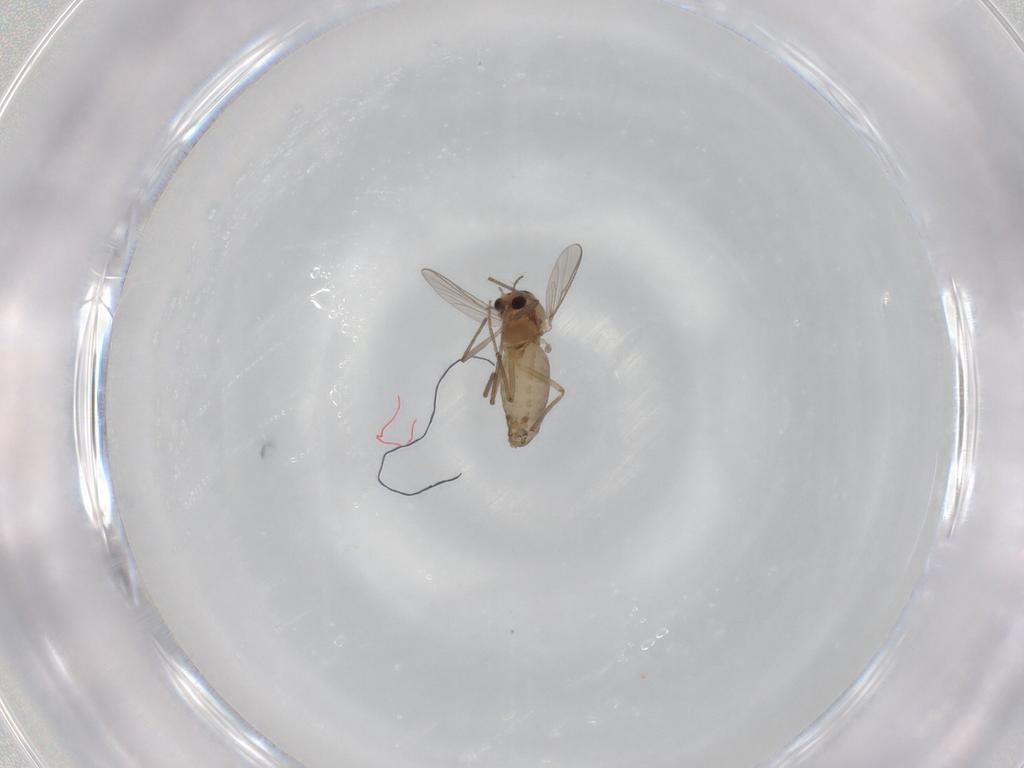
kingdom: Animalia
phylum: Arthropoda
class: Insecta
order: Diptera
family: Chironomidae
